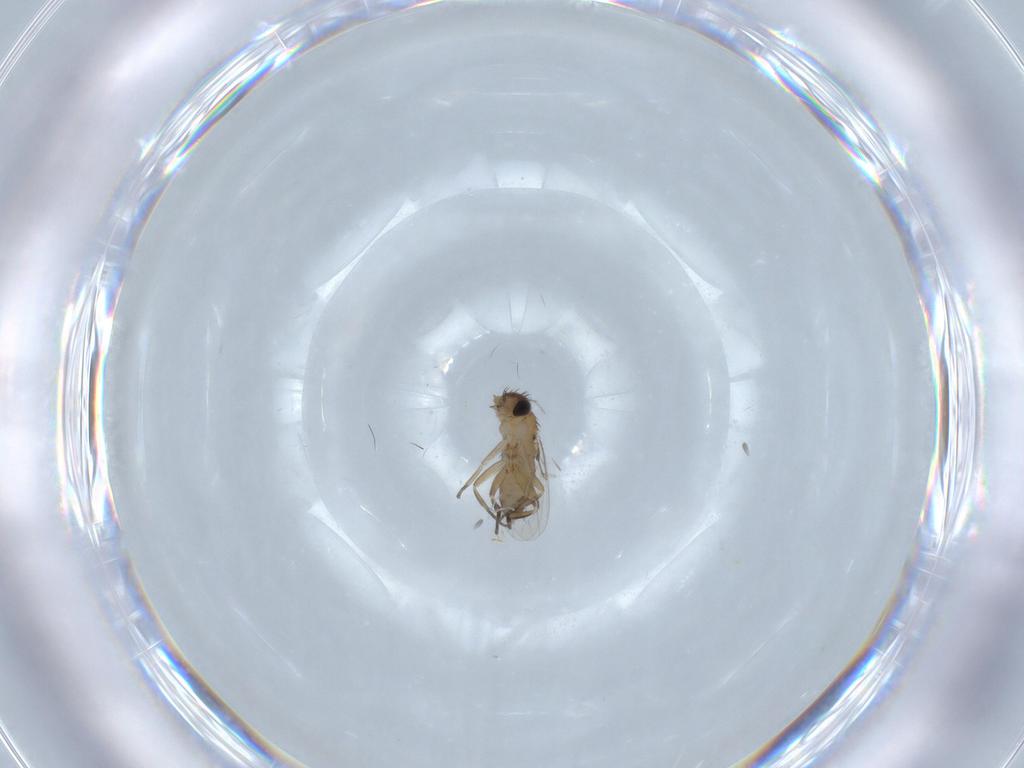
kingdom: Animalia
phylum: Arthropoda
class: Insecta
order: Diptera
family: Cecidomyiidae
